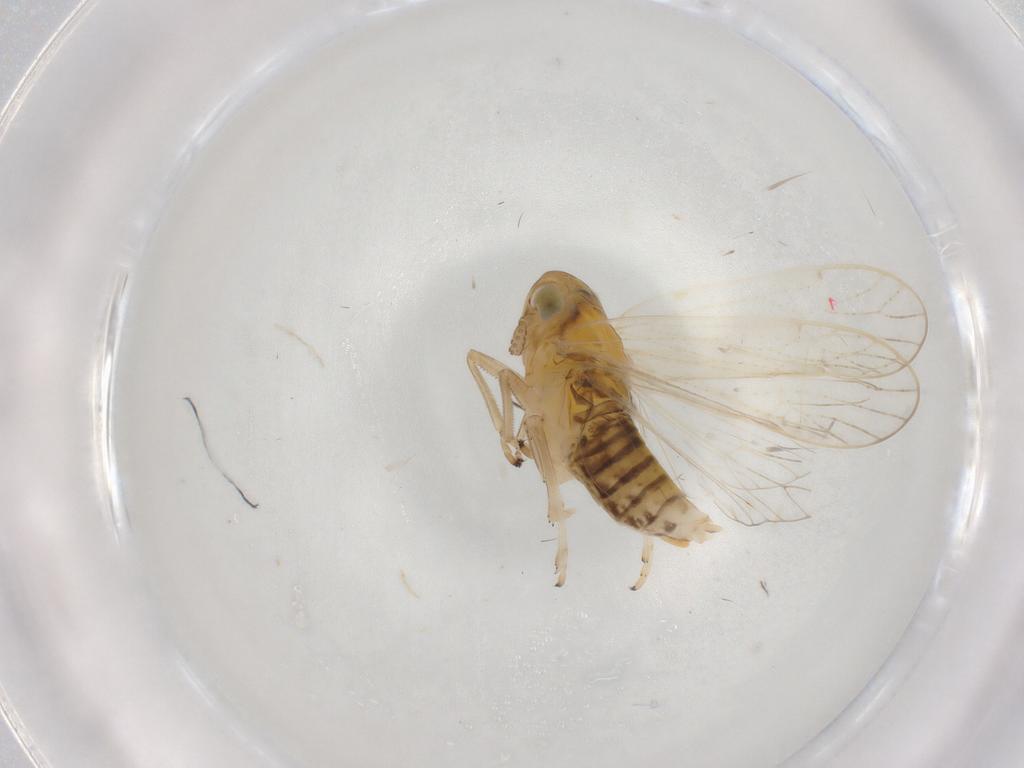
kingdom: Animalia
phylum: Arthropoda
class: Insecta
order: Hemiptera
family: Delphacidae
